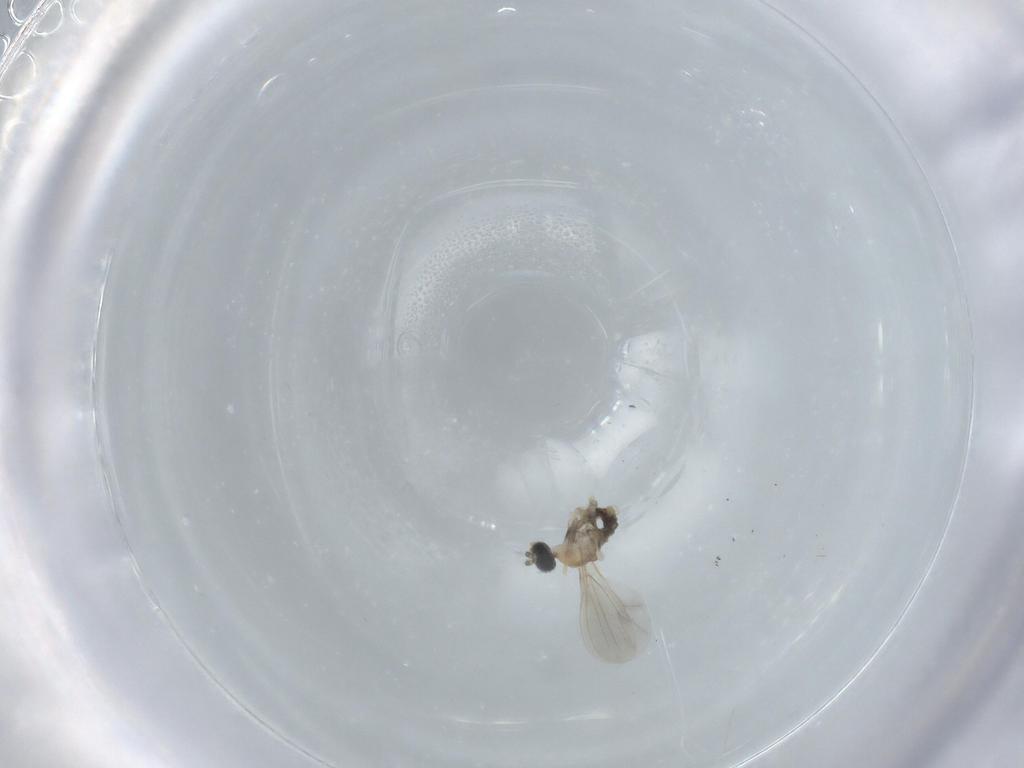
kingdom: Animalia
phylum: Arthropoda
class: Insecta
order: Diptera
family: Cecidomyiidae
